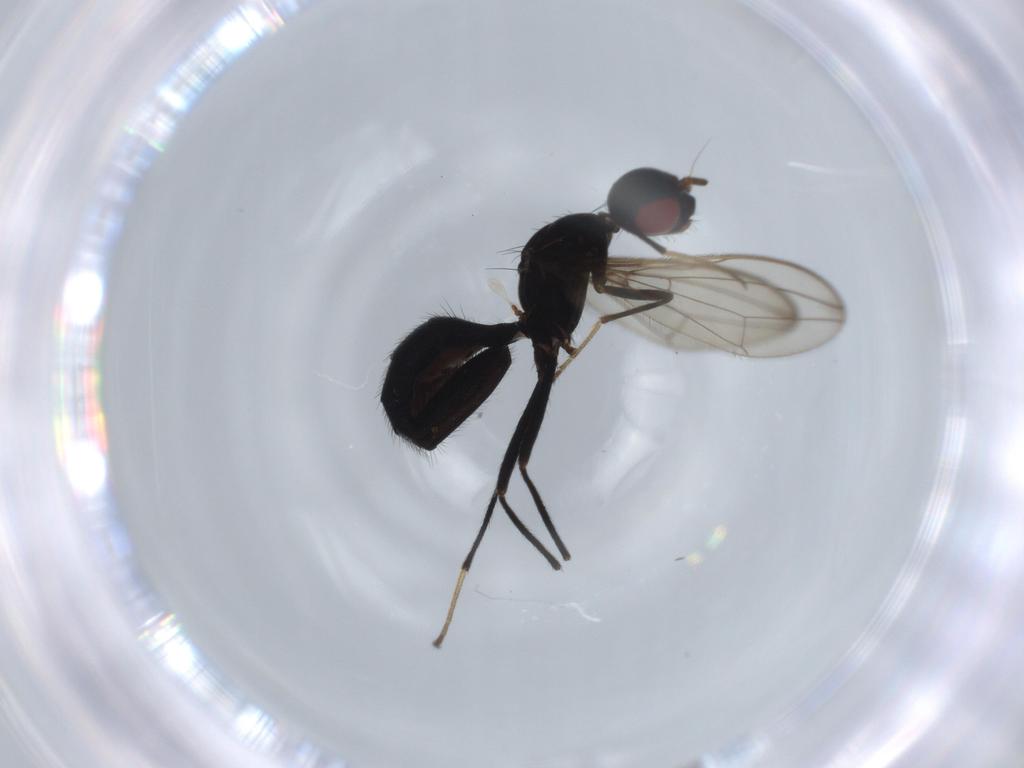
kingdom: Animalia
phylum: Arthropoda
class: Insecta
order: Diptera
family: Richardiidae
